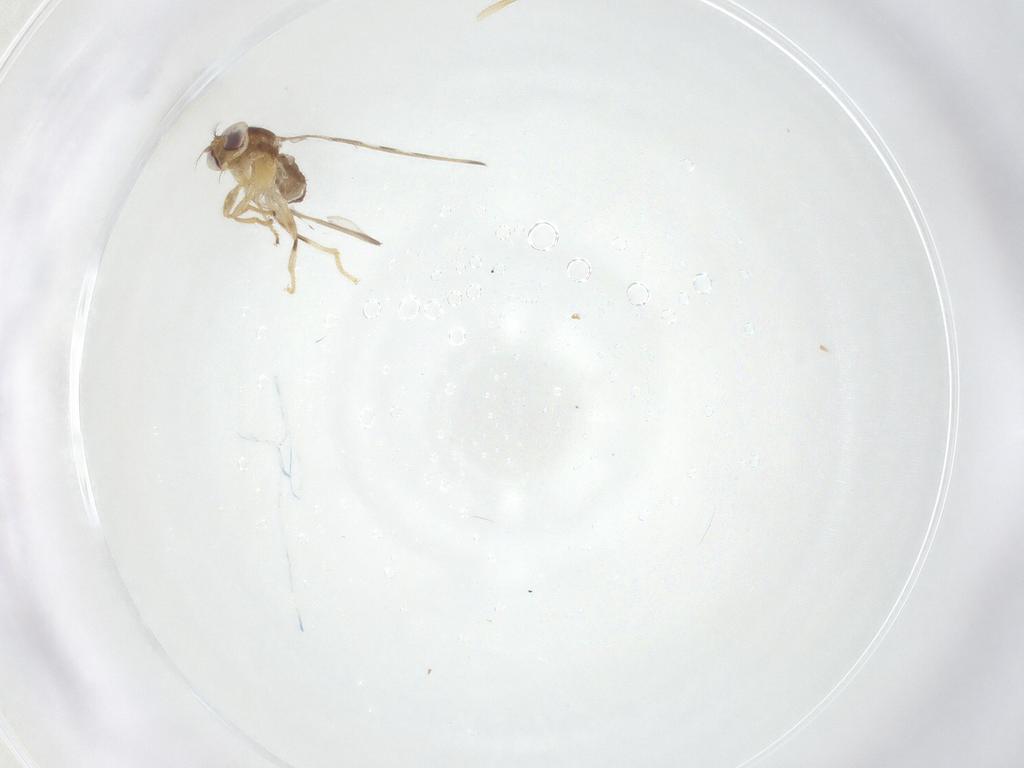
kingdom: Animalia
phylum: Arthropoda
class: Insecta
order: Diptera
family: Periscelididae
